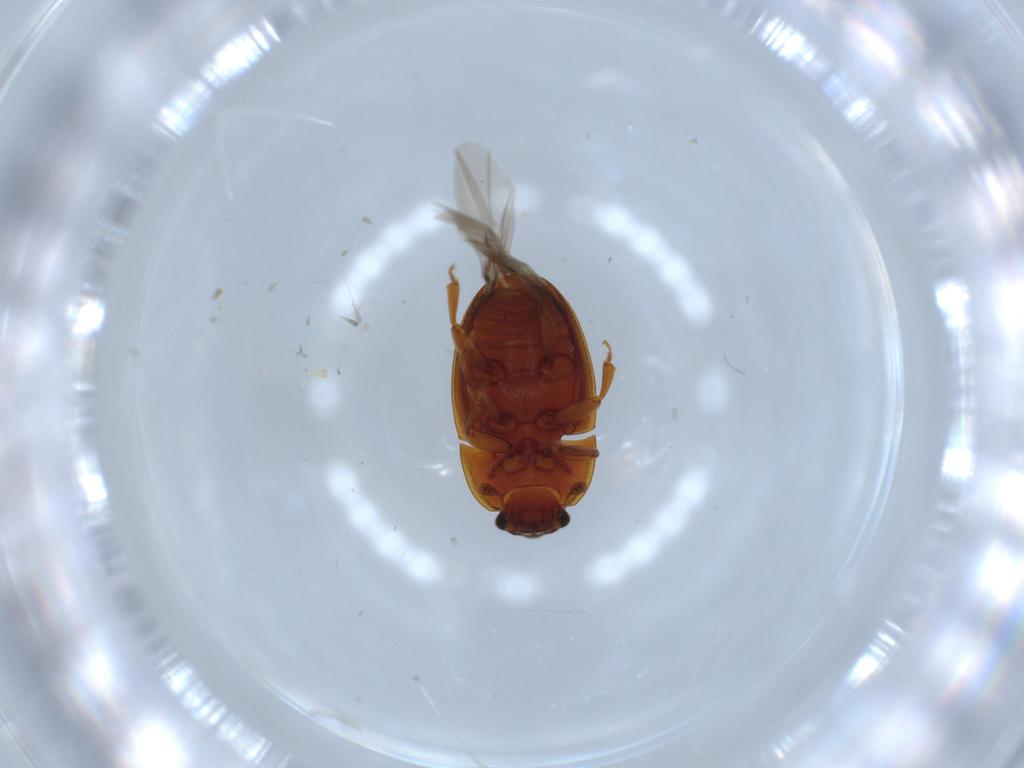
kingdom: Animalia
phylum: Arthropoda
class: Insecta
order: Coleoptera
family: Nitidulidae
